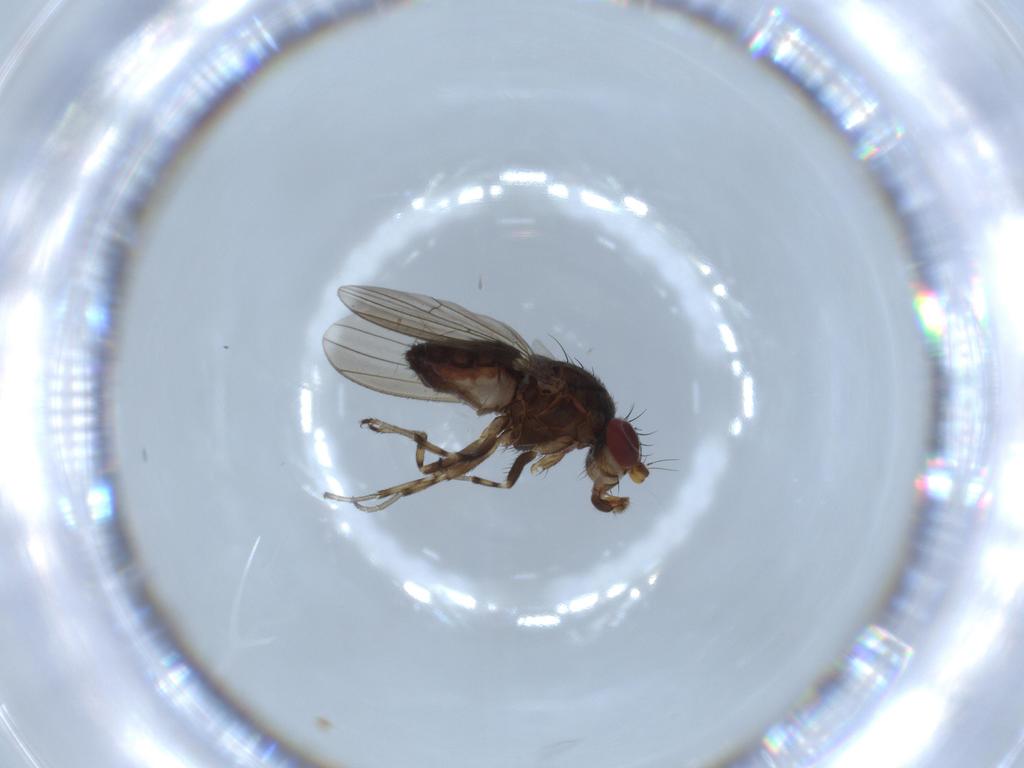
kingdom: Animalia
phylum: Arthropoda
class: Insecta
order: Diptera
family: Heleomyzidae
